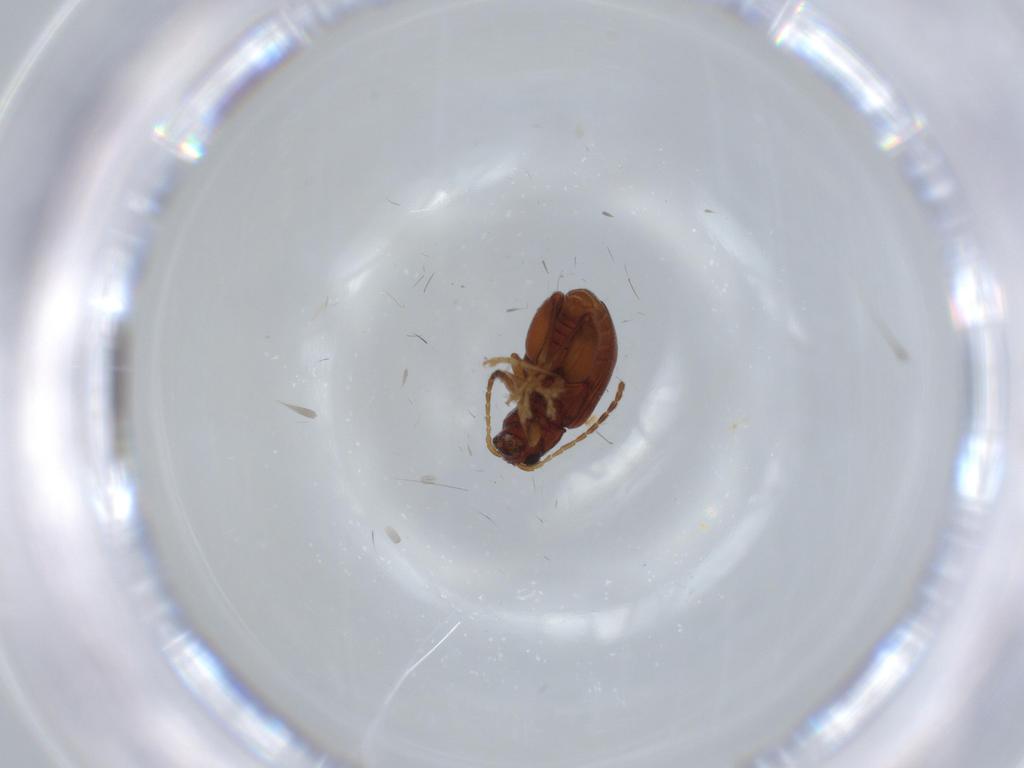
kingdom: Animalia
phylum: Arthropoda
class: Insecta
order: Coleoptera
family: Chrysomelidae
